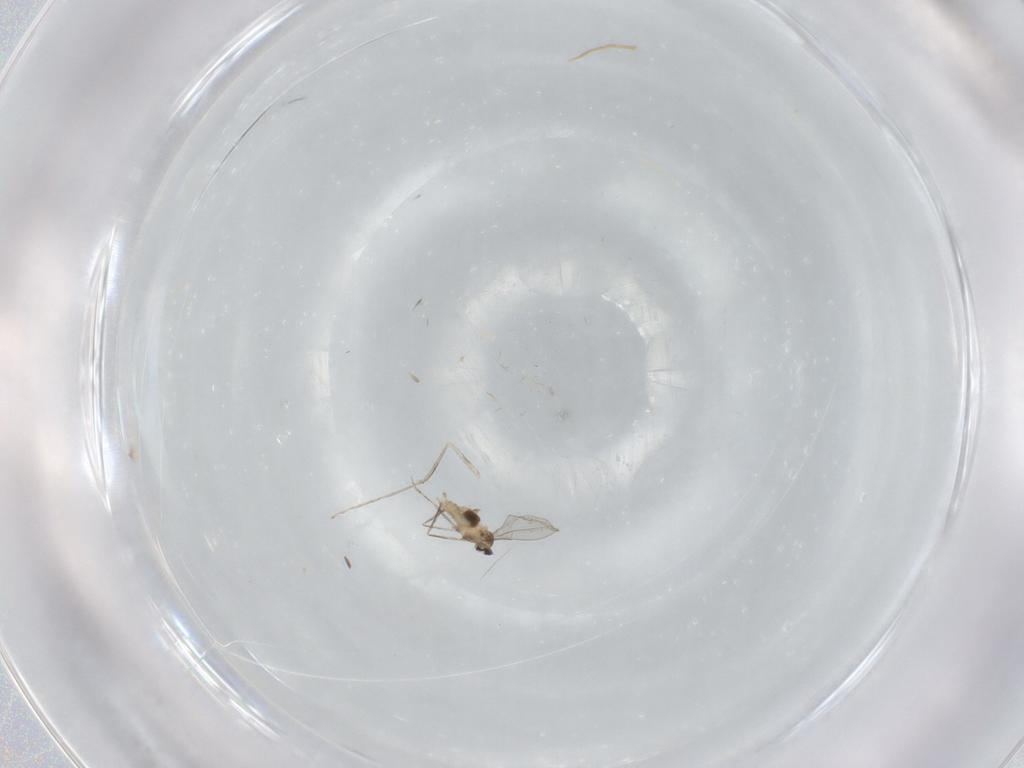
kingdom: Animalia
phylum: Arthropoda
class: Insecta
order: Diptera
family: Cecidomyiidae
